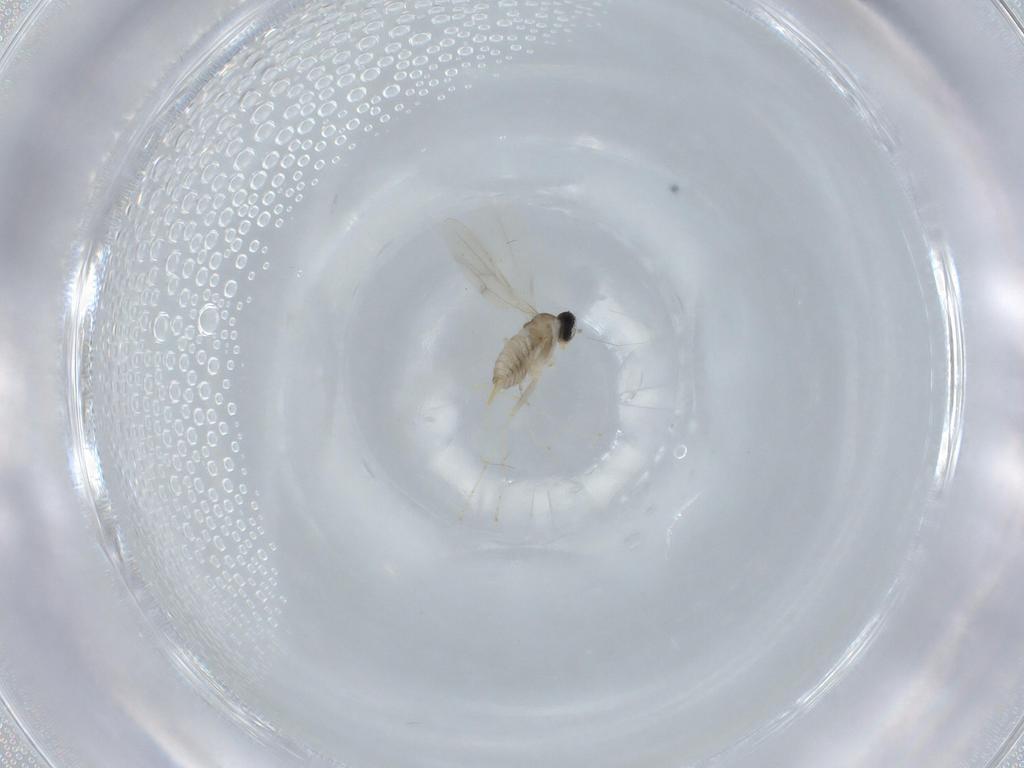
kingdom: Animalia
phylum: Arthropoda
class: Insecta
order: Diptera
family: Cecidomyiidae
